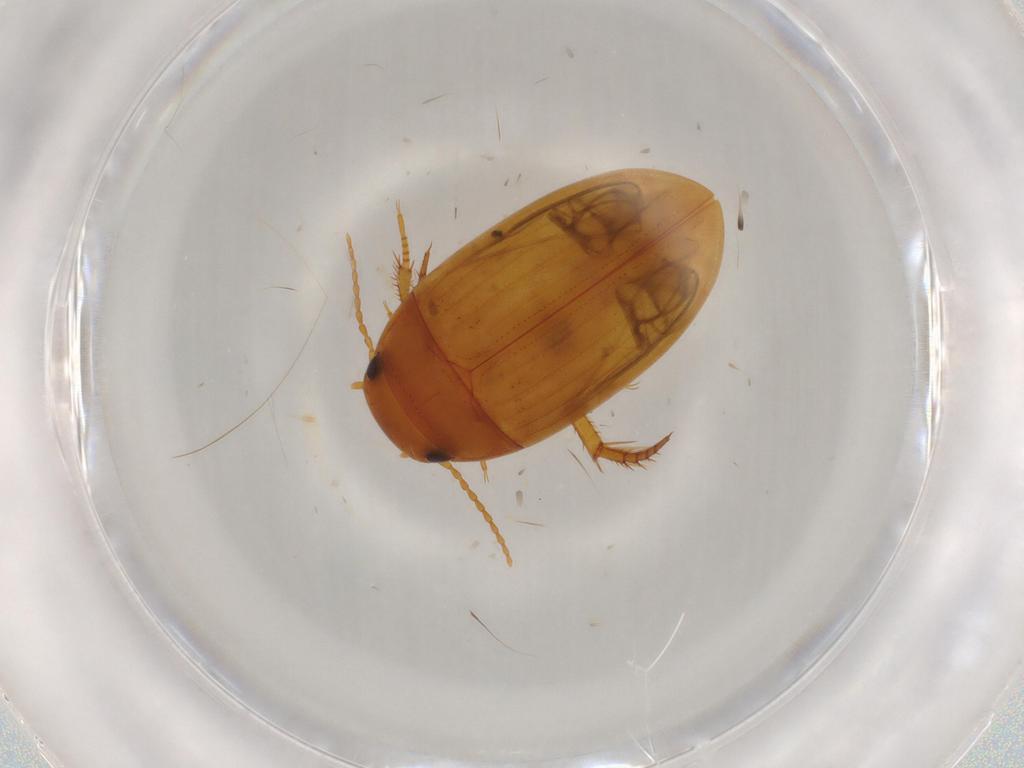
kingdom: Animalia
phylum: Arthropoda
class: Insecta
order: Coleoptera
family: Dytiscidae
